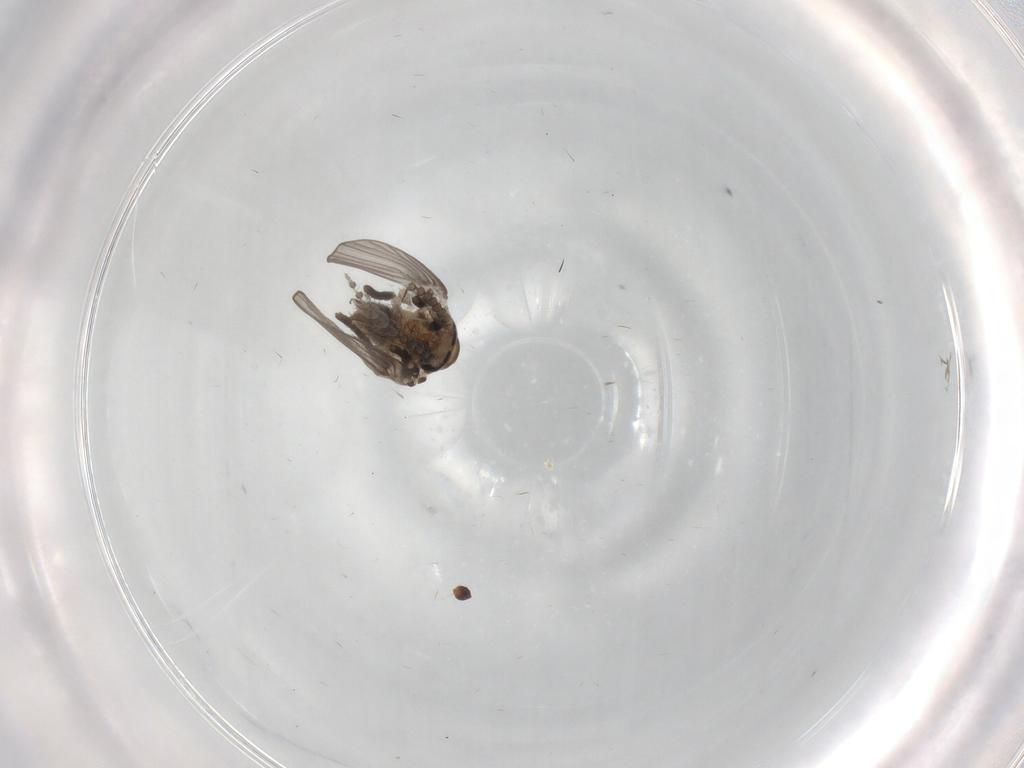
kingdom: Animalia
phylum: Arthropoda
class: Insecta
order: Diptera
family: Psychodidae
